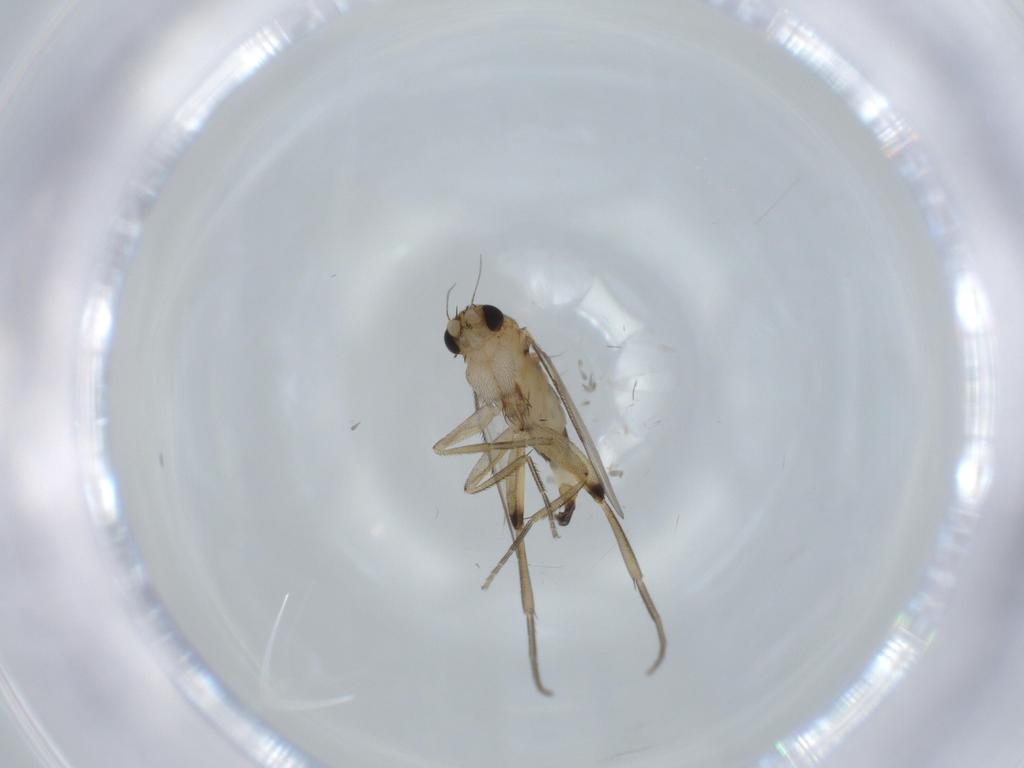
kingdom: Animalia
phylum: Arthropoda
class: Insecta
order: Diptera
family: Phoridae
